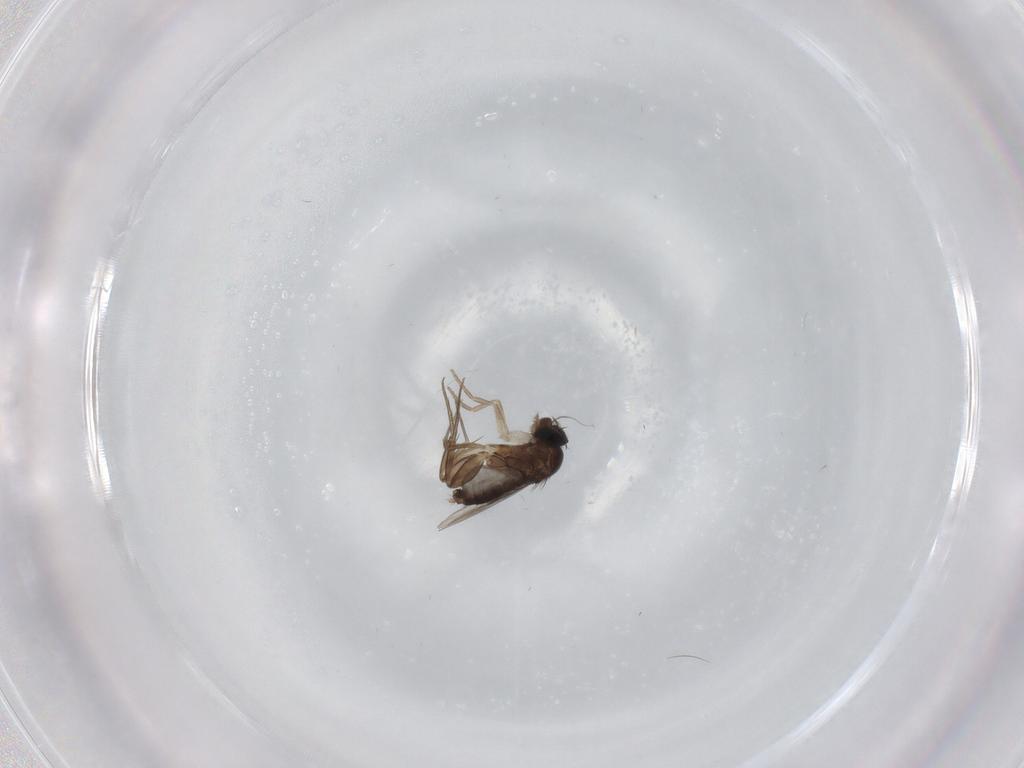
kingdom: Animalia
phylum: Arthropoda
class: Insecta
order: Diptera
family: Phoridae
